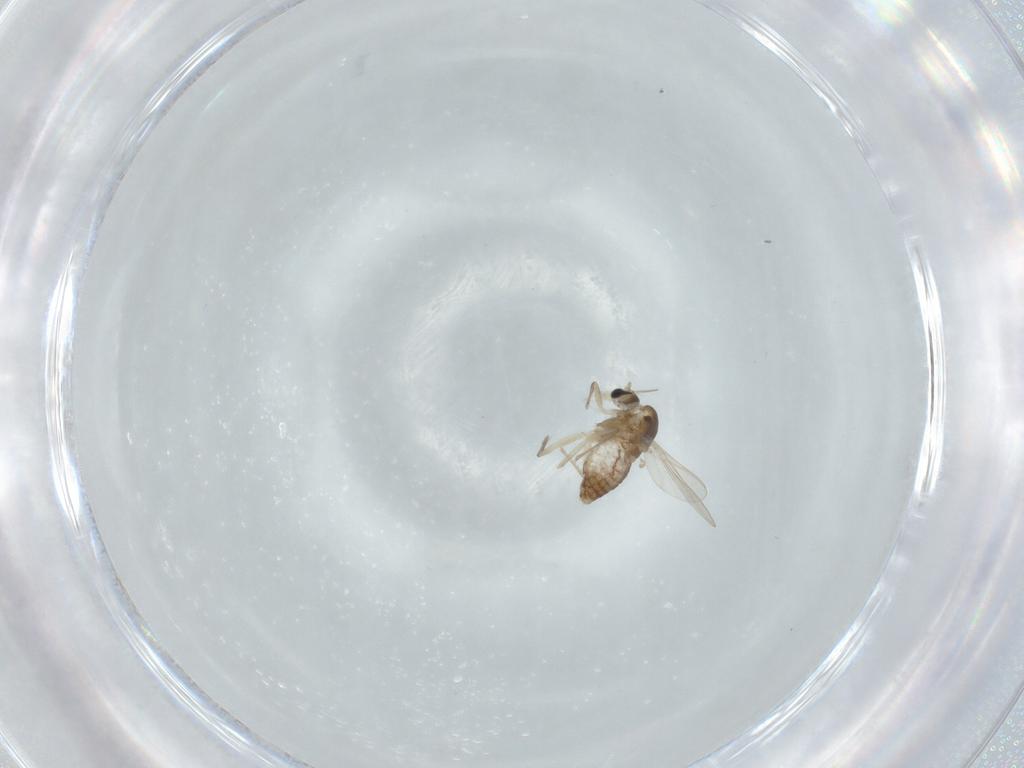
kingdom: Animalia
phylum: Arthropoda
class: Insecta
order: Diptera
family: Chironomidae
